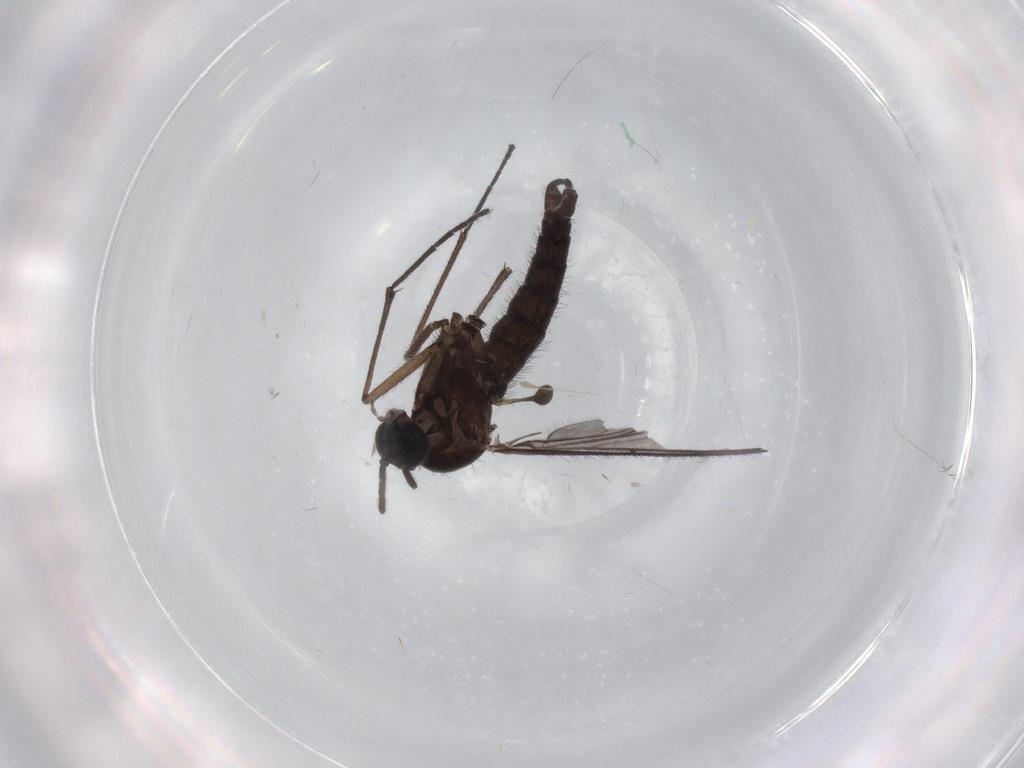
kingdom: Animalia
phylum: Arthropoda
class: Insecta
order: Diptera
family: Sciaridae
